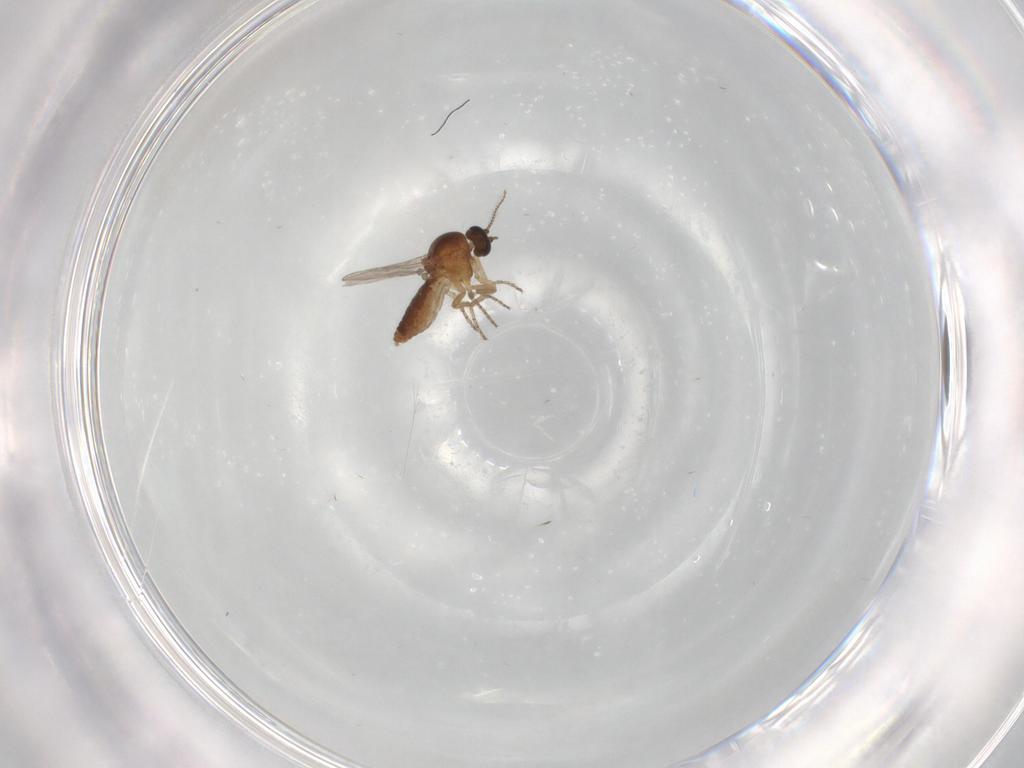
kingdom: Animalia
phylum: Arthropoda
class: Insecta
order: Diptera
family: Ceratopogonidae
